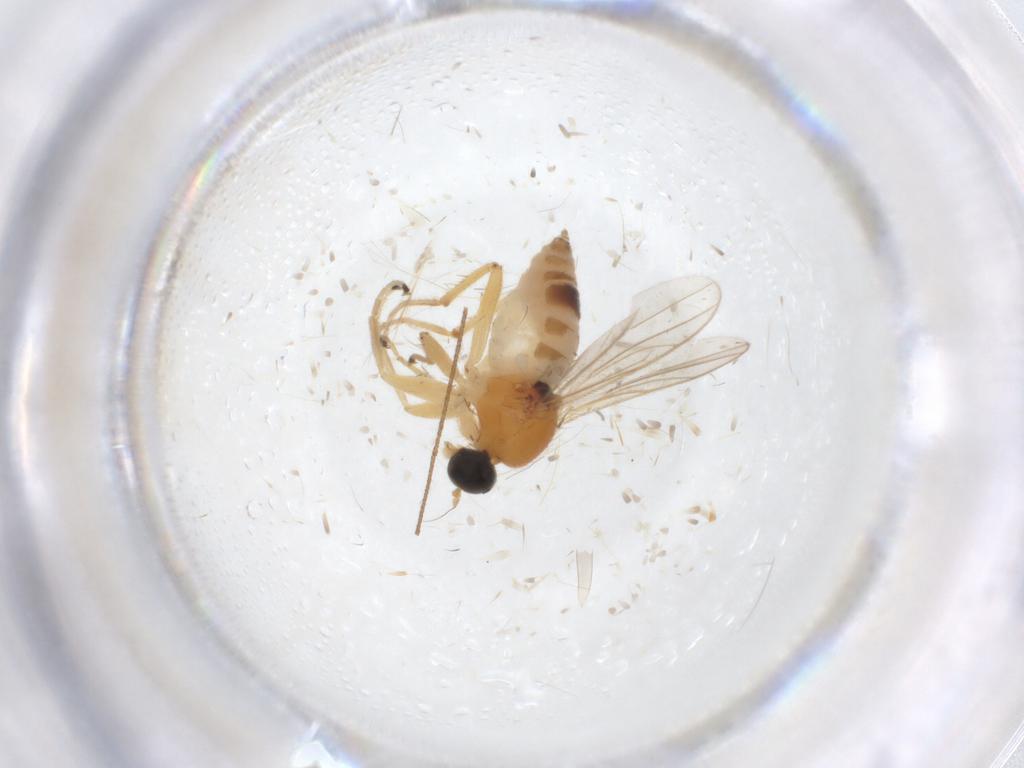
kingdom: Animalia
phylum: Arthropoda
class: Insecta
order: Diptera
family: Hybotidae
